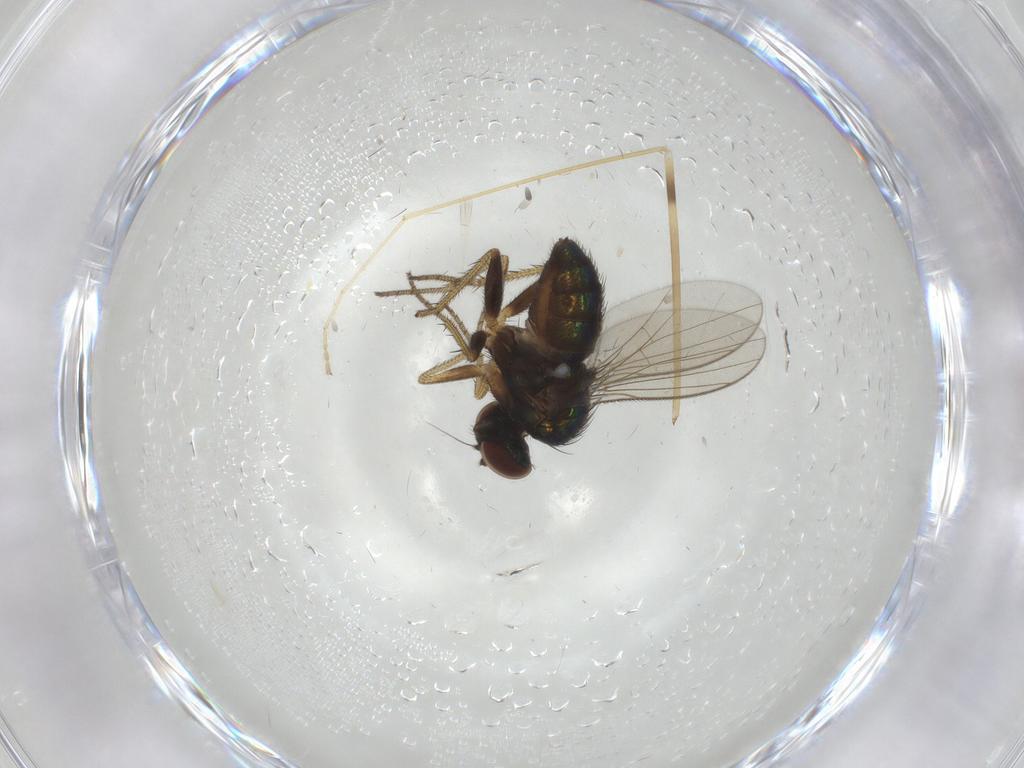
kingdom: Animalia
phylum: Arthropoda
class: Insecta
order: Diptera
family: Limoniidae
